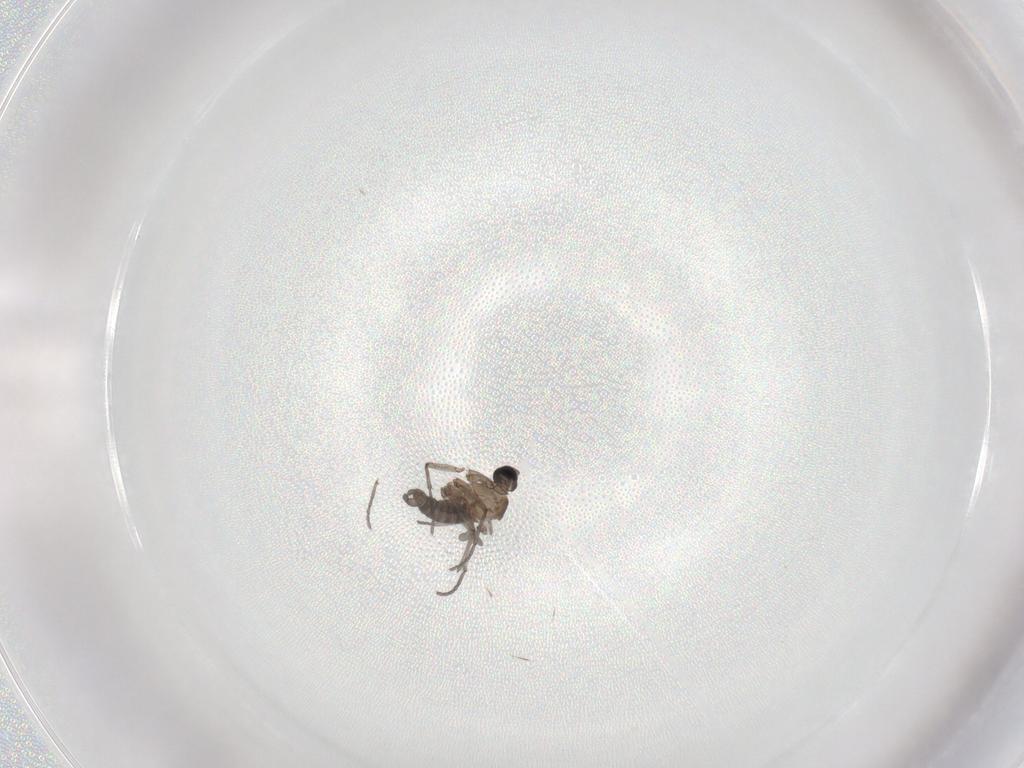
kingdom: Animalia
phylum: Arthropoda
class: Insecta
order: Diptera
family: Sciaridae
